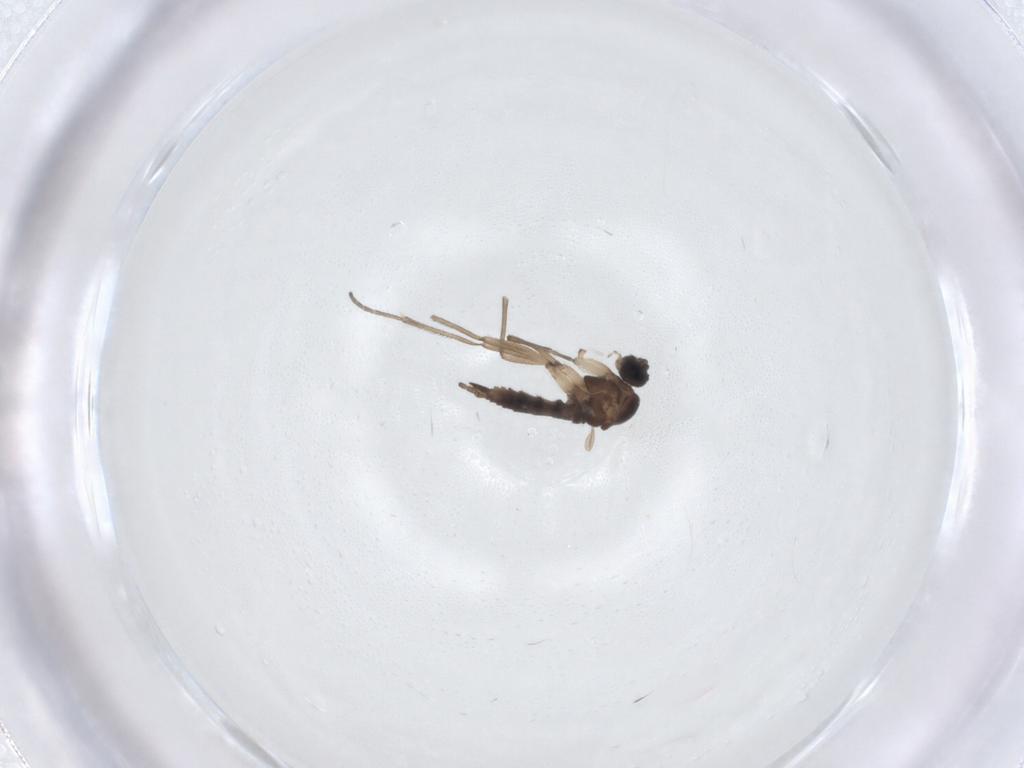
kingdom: Animalia
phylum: Arthropoda
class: Insecta
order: Diptera
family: Sciaridae
